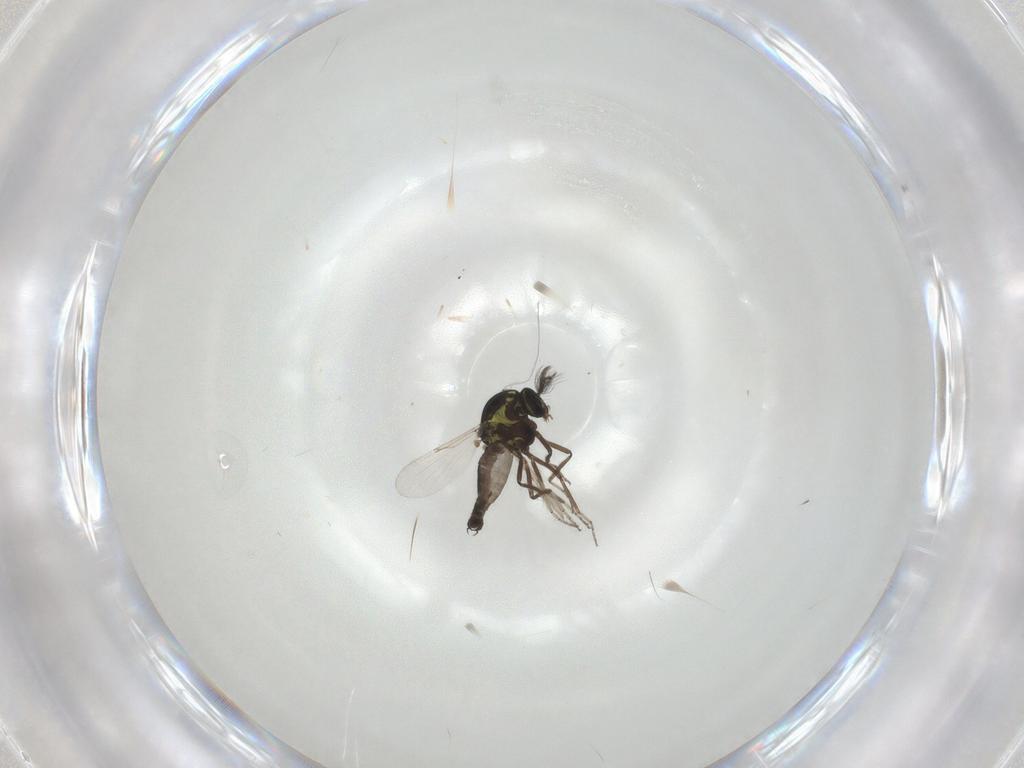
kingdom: Animalia
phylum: Arthropoda
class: Insecta
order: Diptera
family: Ceratopogonidae
